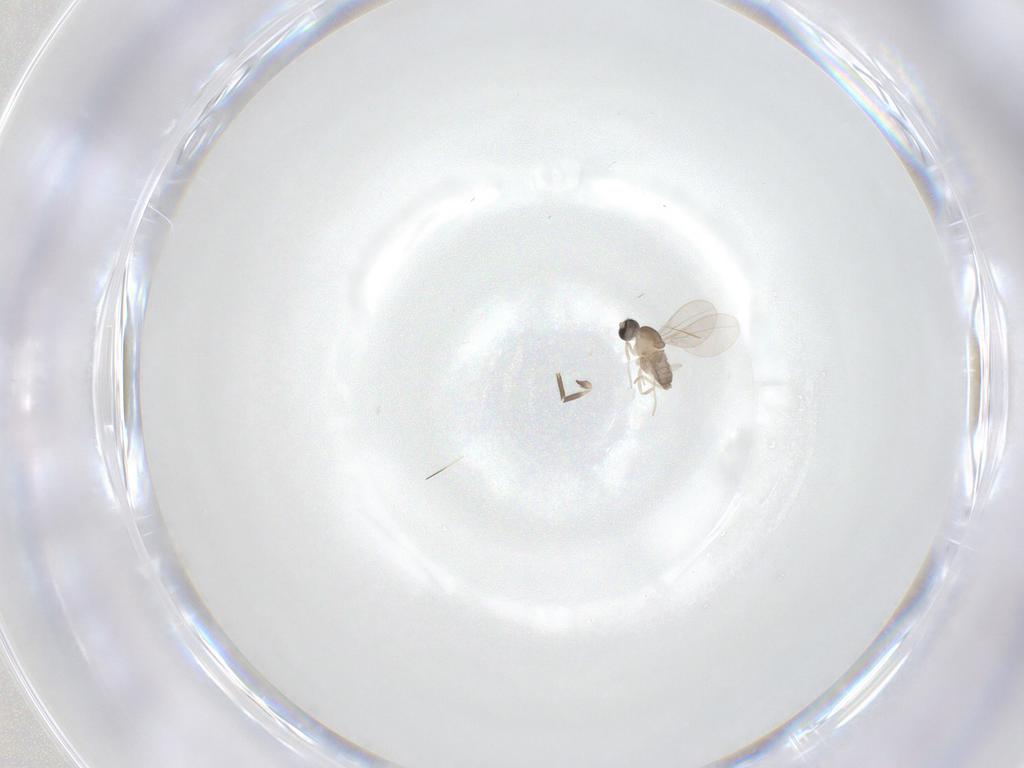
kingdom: Animalia
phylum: Arthropoda
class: Insecta
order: Diptera
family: Cecidomyiidae
